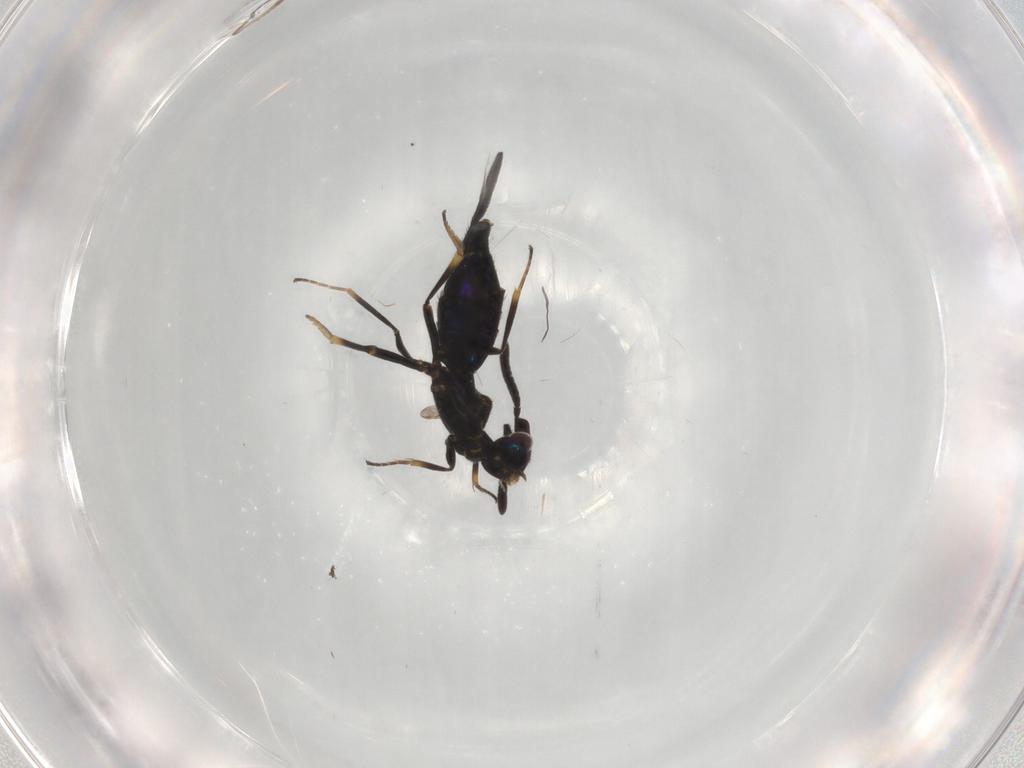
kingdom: Animalia
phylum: Arthropoda
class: Insecta
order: Hymenoptera
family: Eupelmidae
